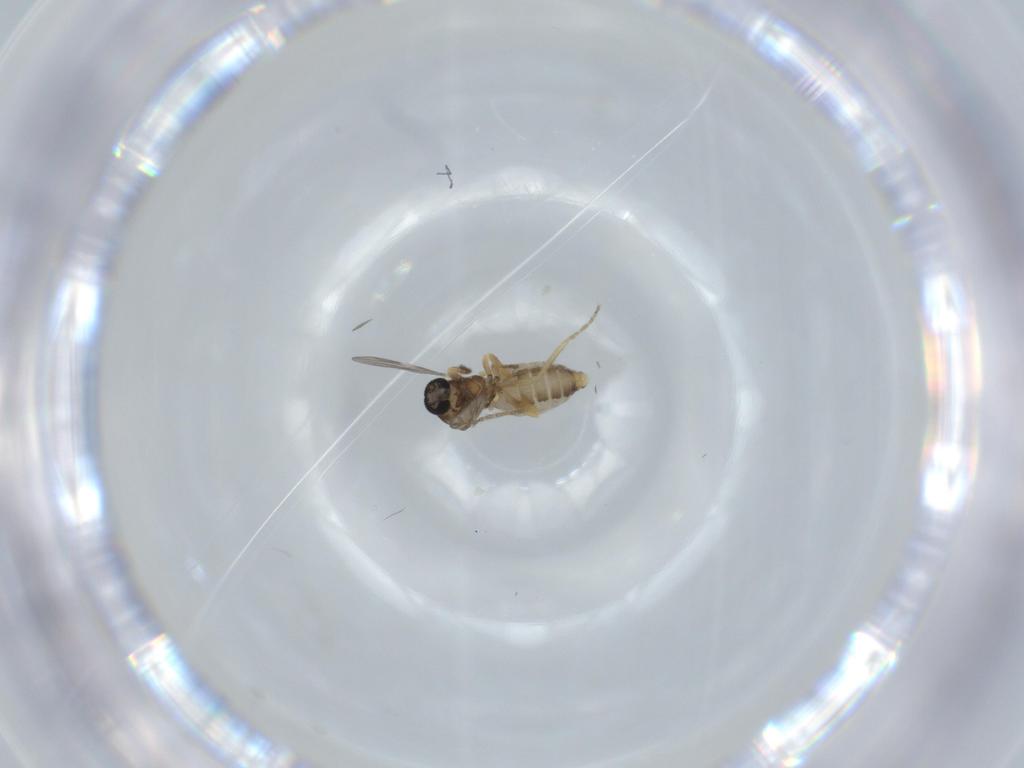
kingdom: Animalia
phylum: Arthropoda
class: Insecta
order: Diptera
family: Ceratopogonidae
